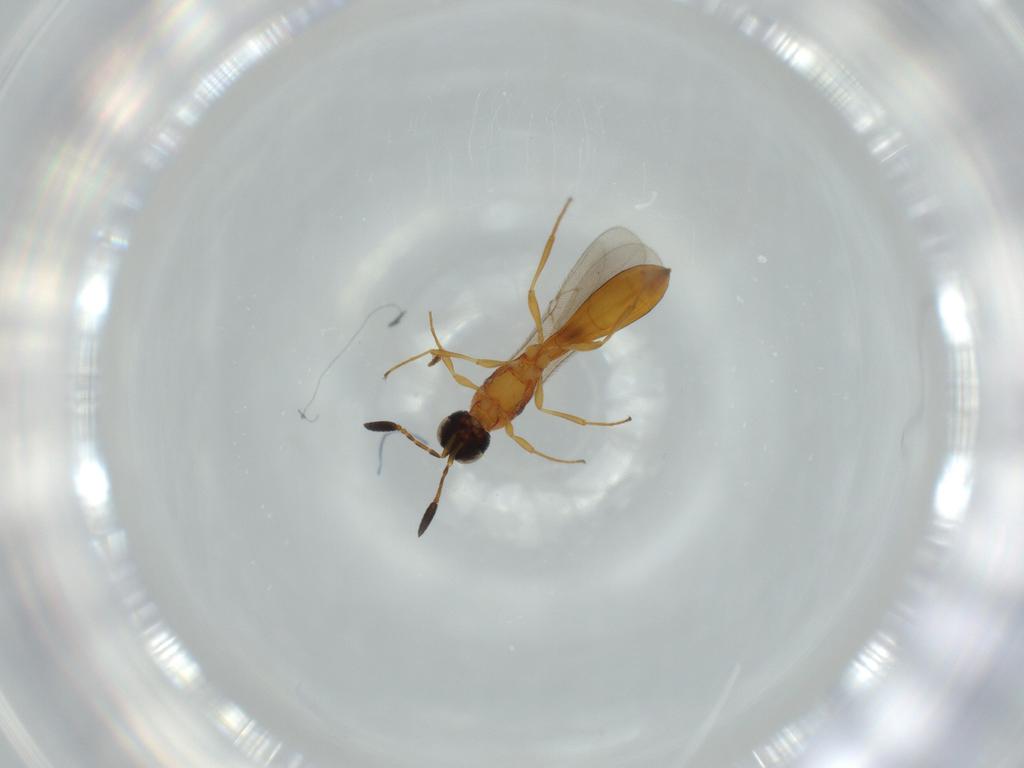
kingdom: Animalia
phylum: Arthropoda
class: Insecta
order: Hymenoptera
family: Scelionidae
